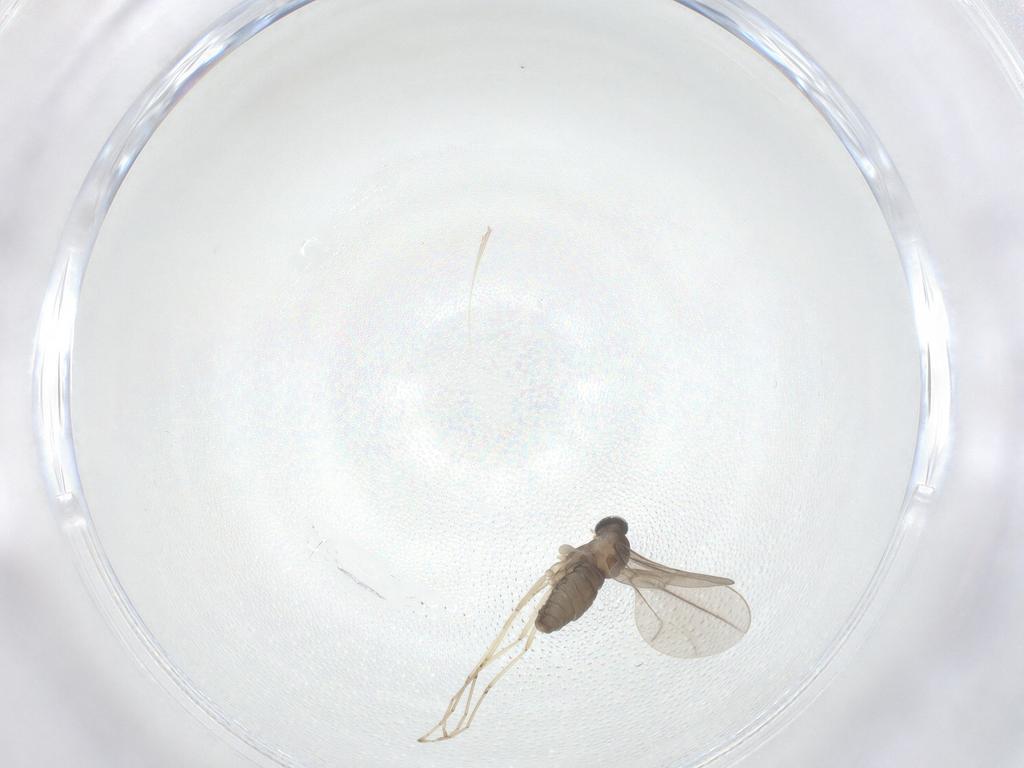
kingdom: Animalia
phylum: Arthropoda
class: Insecta
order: Diptera
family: Cecidomyiidae
